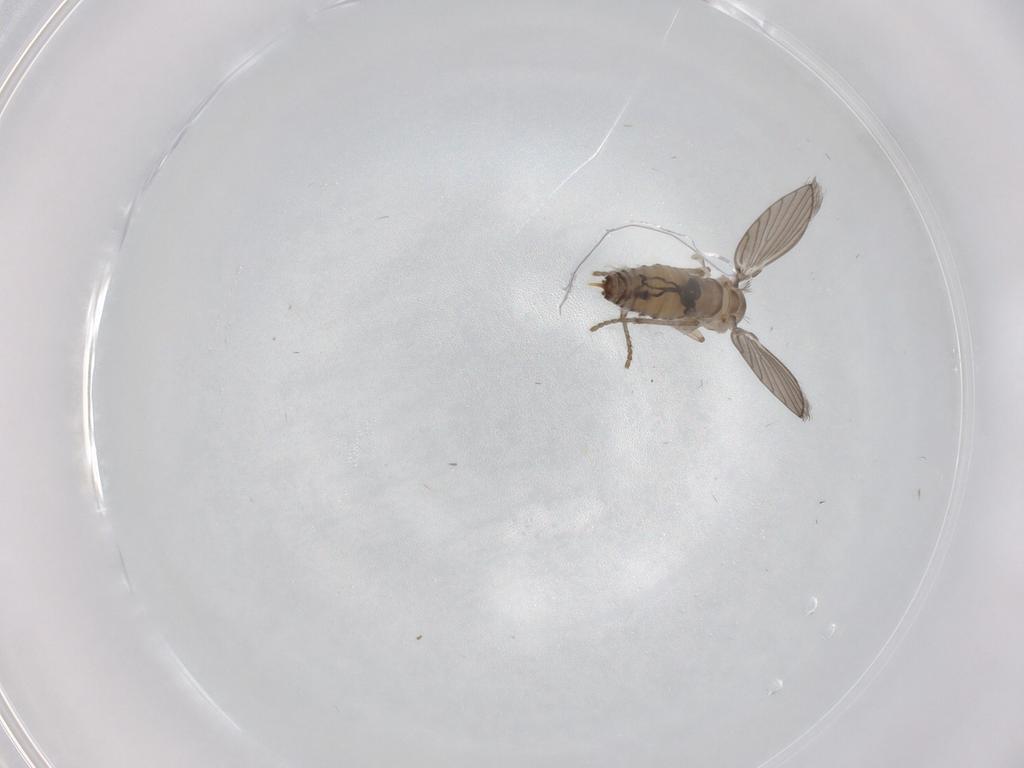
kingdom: Animalia
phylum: Arthropoda
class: Insecta
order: Diptera
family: Psychodidae
